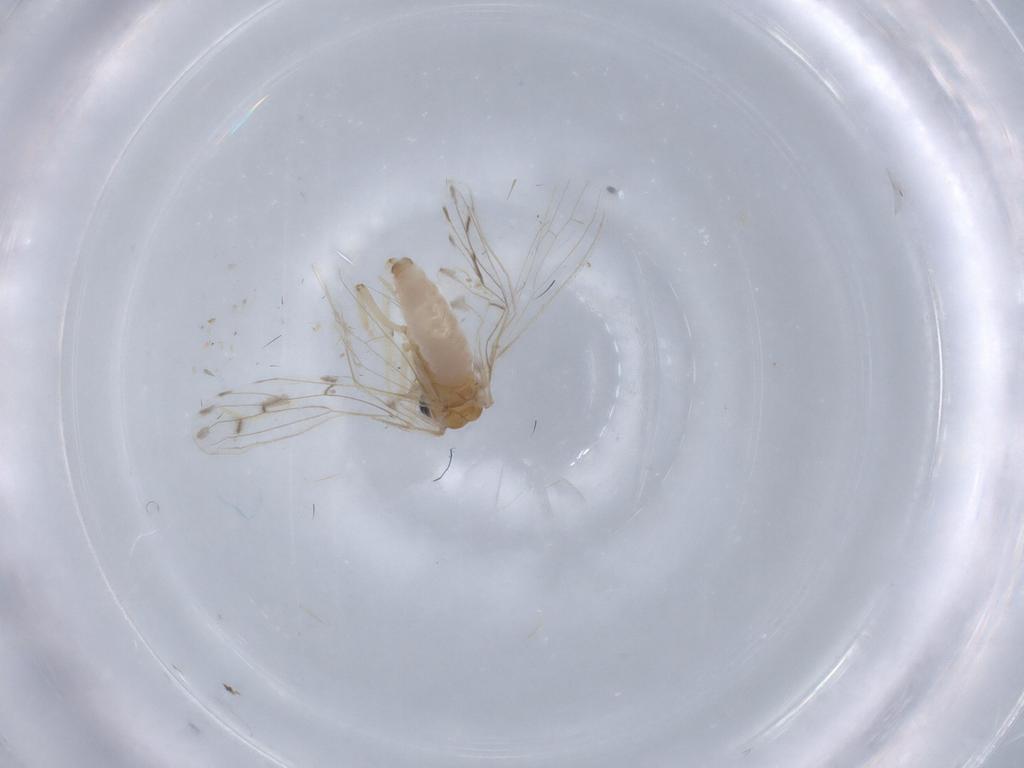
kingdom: Animalia
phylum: Arthropoda
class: Insecta
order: Neuroptera
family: Coniopterygidae
